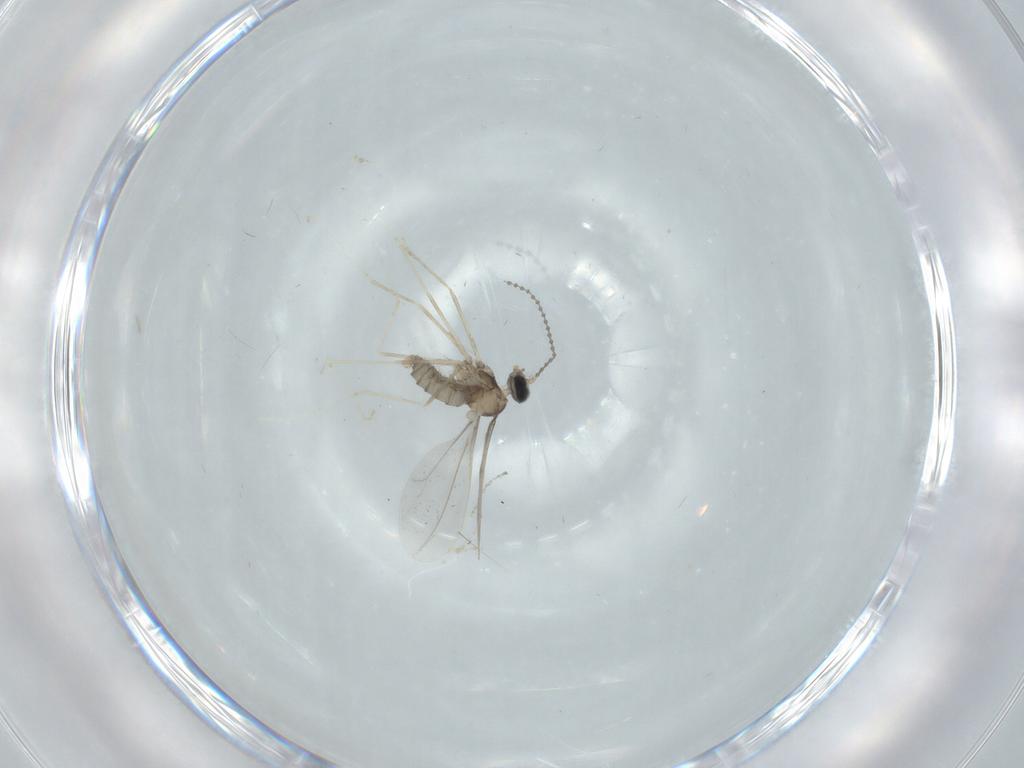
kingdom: Animalia
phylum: Arthropoda
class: Insecta
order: Diptera
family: Cecidomyiidae
